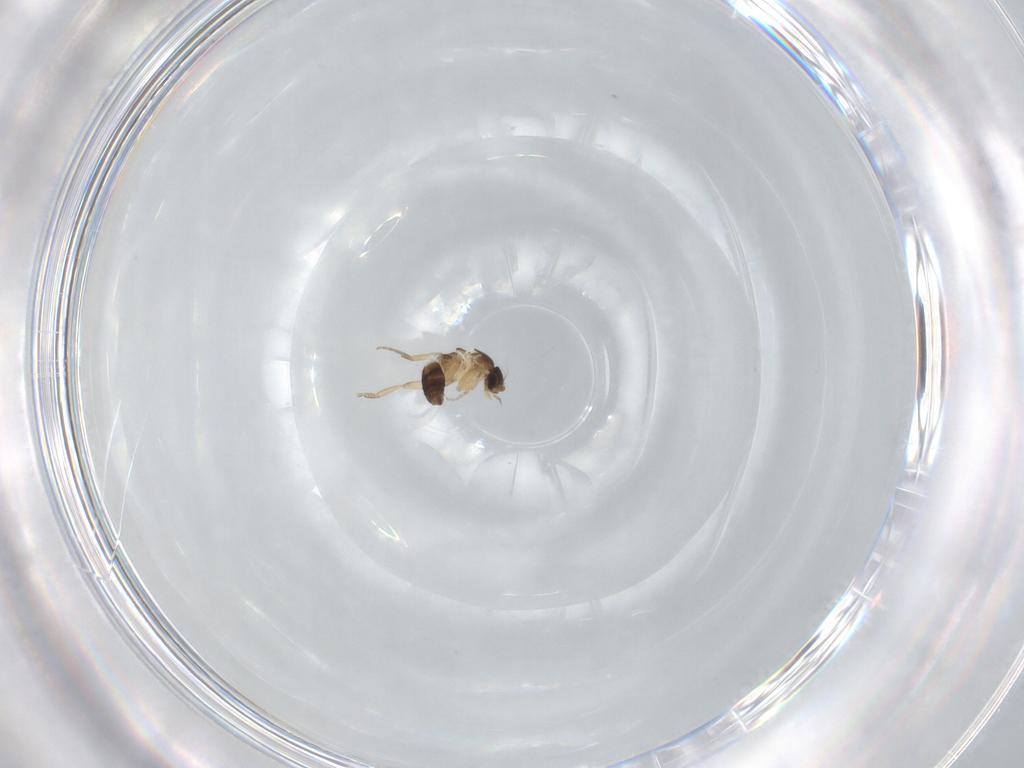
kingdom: Animalia
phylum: Arthropoda
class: Insecta
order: Diptera
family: Phoridae
